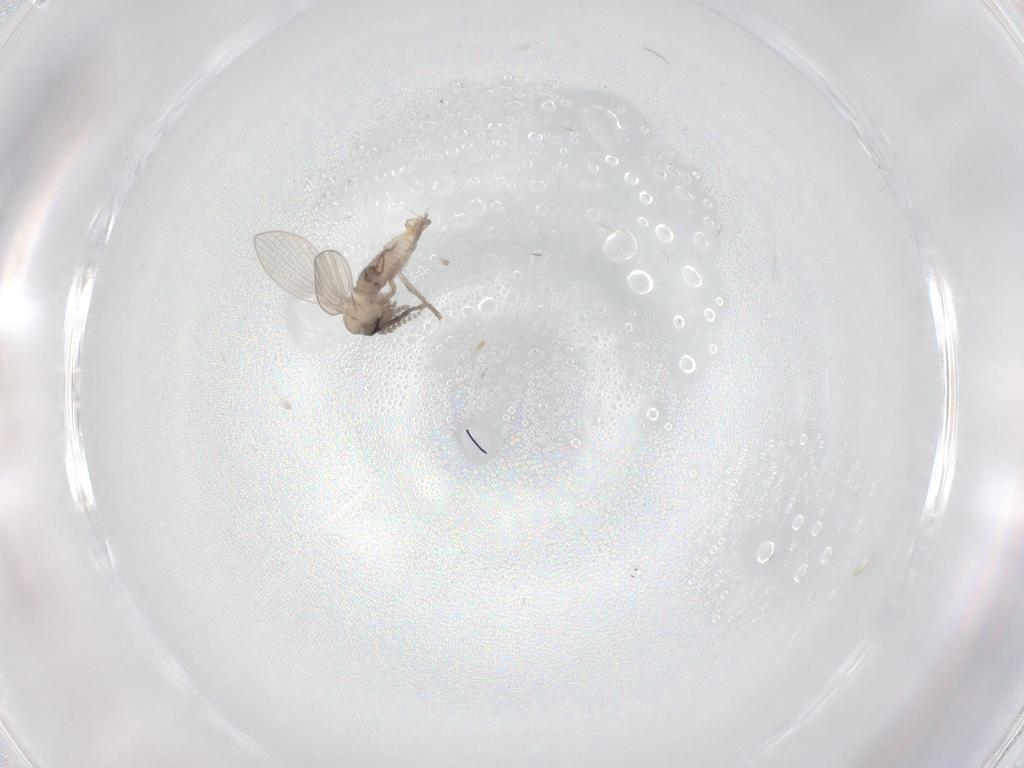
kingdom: Animalia
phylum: Arthropoda
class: Insecta
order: Diptera
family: Psychodidae
